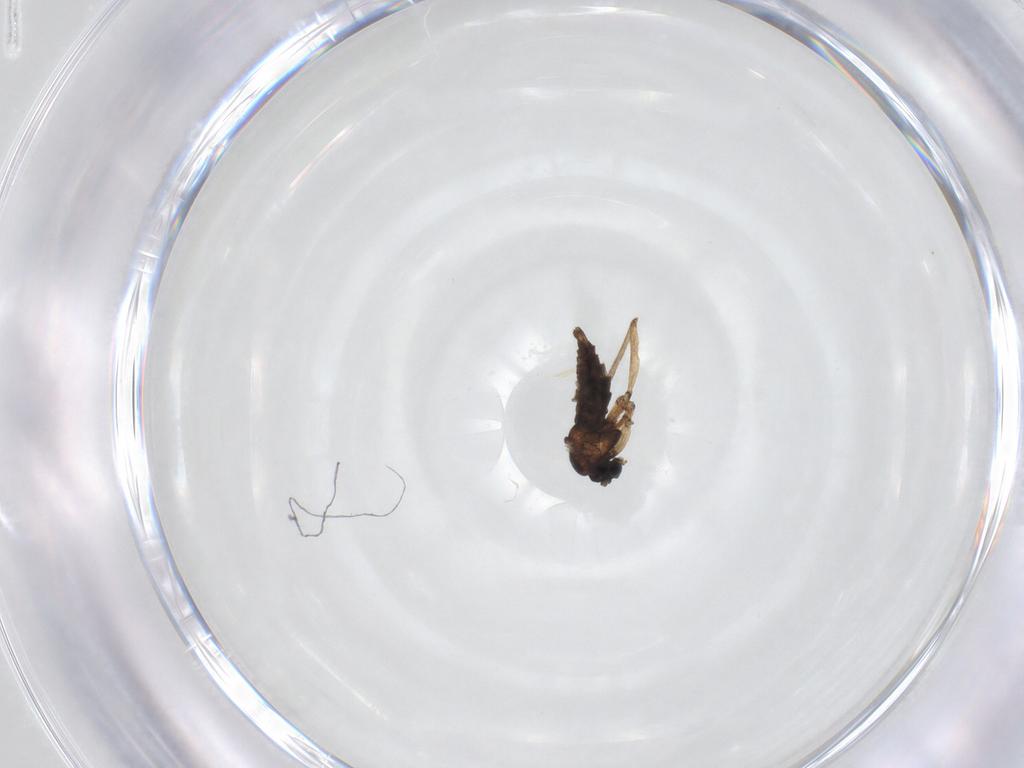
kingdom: Animalia
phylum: Arthropoda
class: Insecta
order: Diptera
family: Sciaridae
